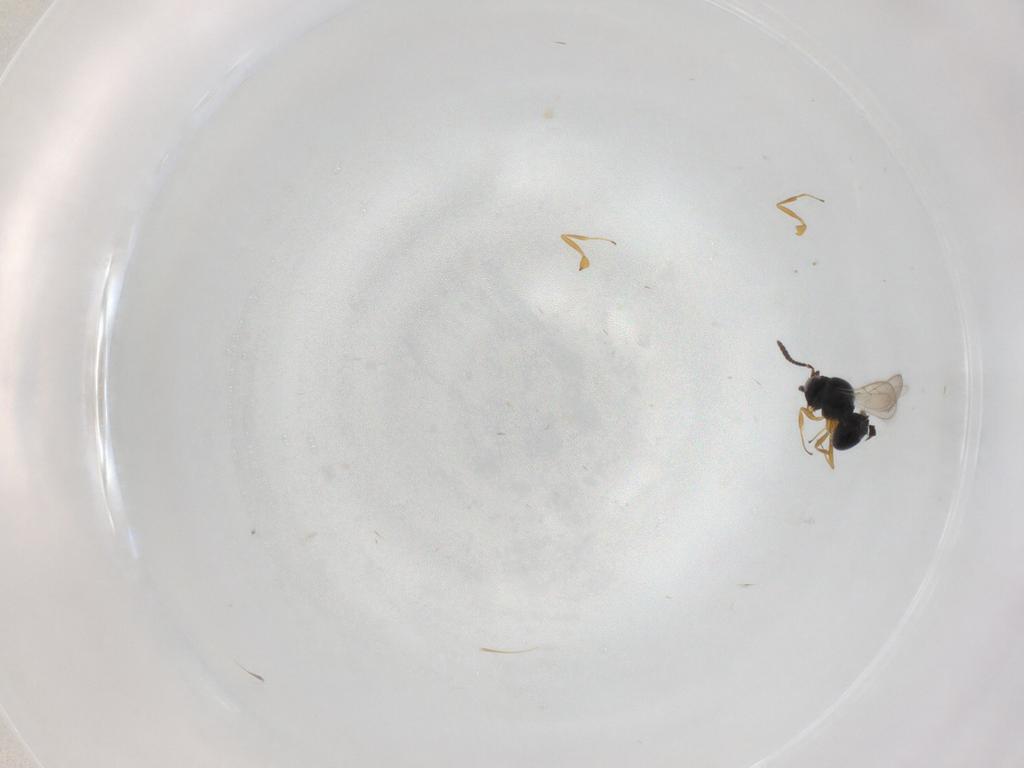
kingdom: Animalia
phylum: Arthropoda
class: Insecta
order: Hymenoptera
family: Scelionidae
